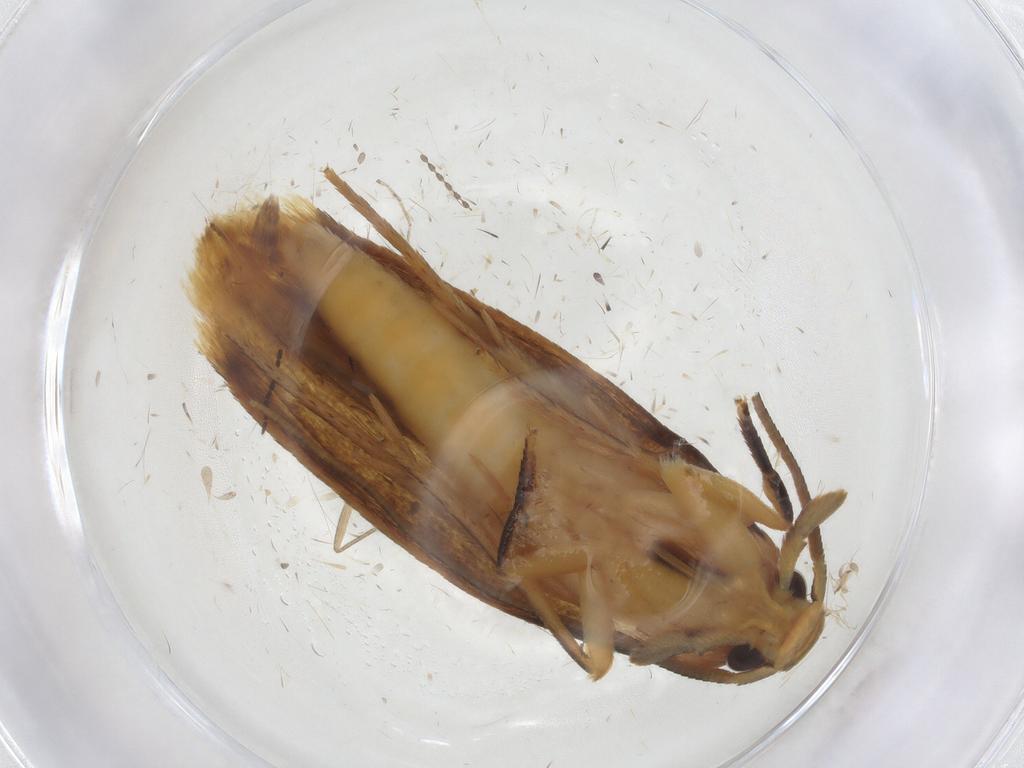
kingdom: Animalia
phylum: Arthropoda
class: Insecta
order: Lepidoptera
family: Tineidae
